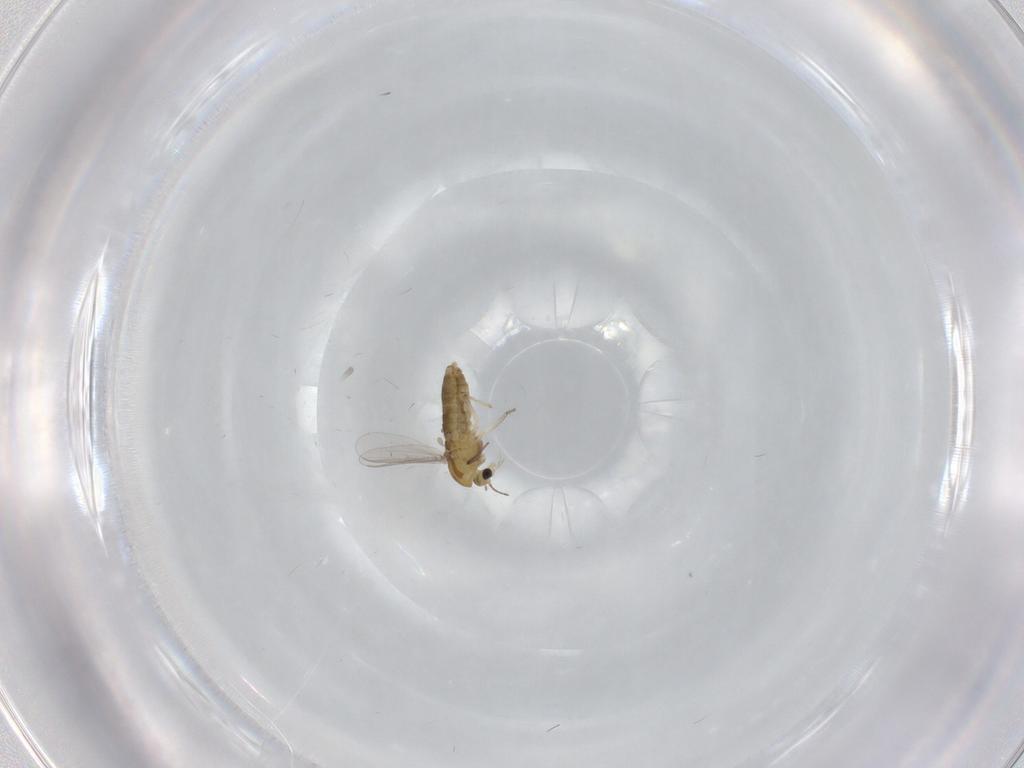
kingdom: Animalia
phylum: Arthropoda
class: Insecta
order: Diptera
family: Chironomidae
